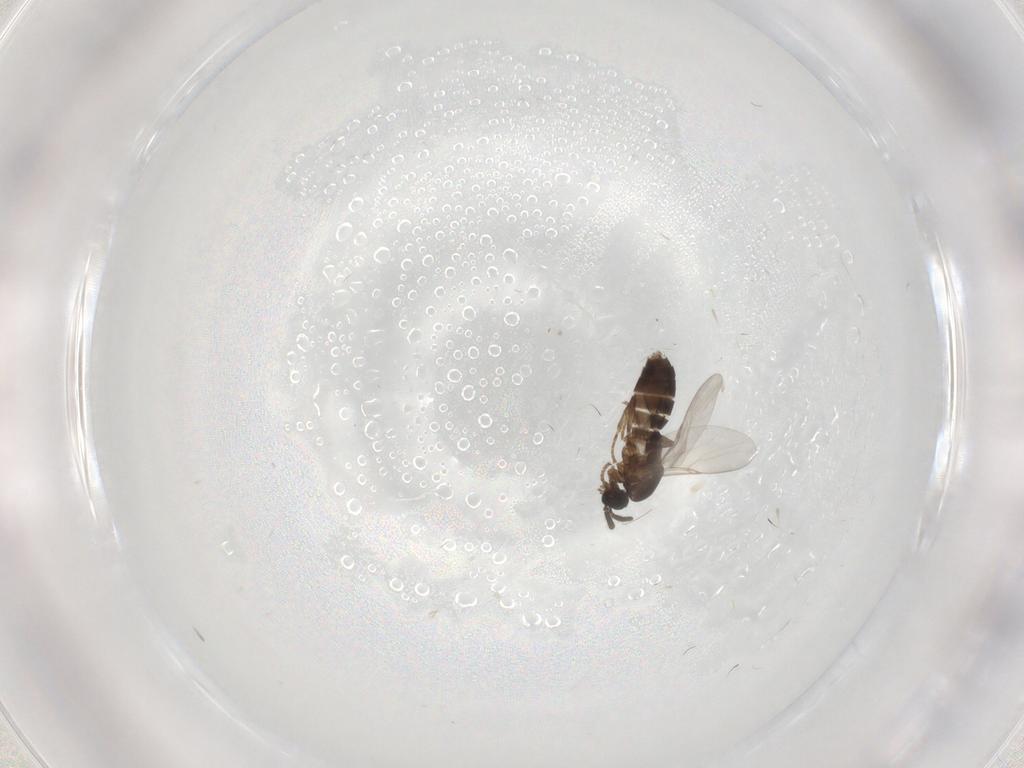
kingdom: Animalia
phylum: Arthropoda
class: Insecta
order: Diptera
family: Scatopsidae
